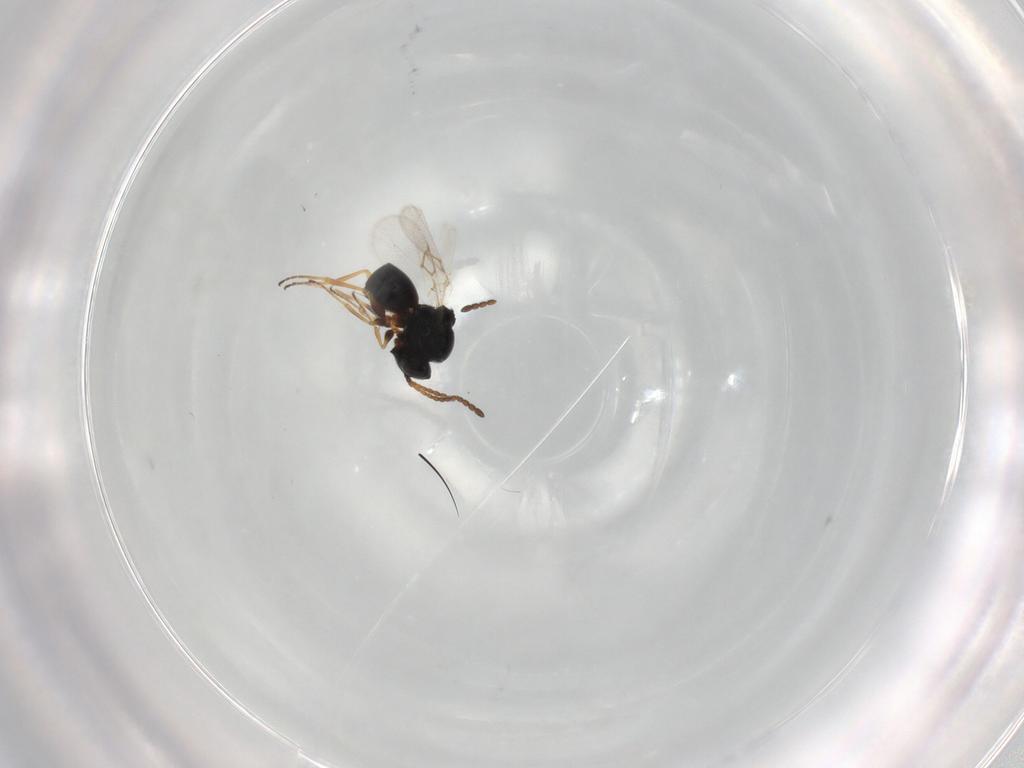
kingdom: Animalia
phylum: Arthropoda
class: Insecta
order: Hymenoptera
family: Figitidae
